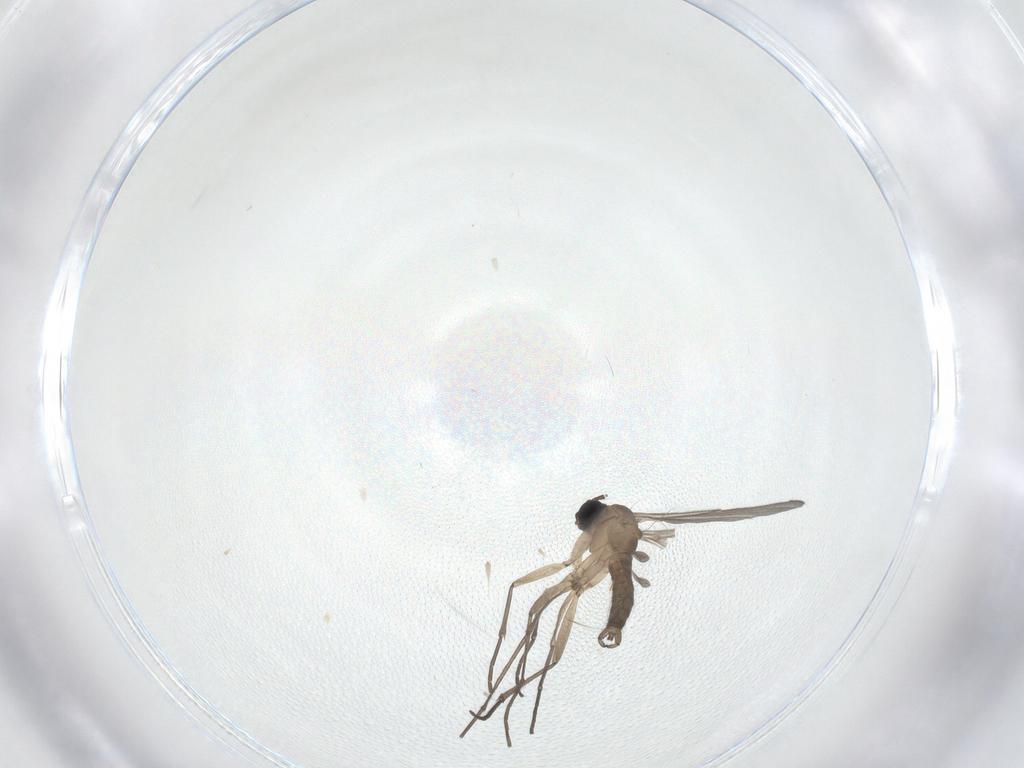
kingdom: Animalia
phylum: Arthropoda
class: Insecta
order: Diptera
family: Sciaridae
